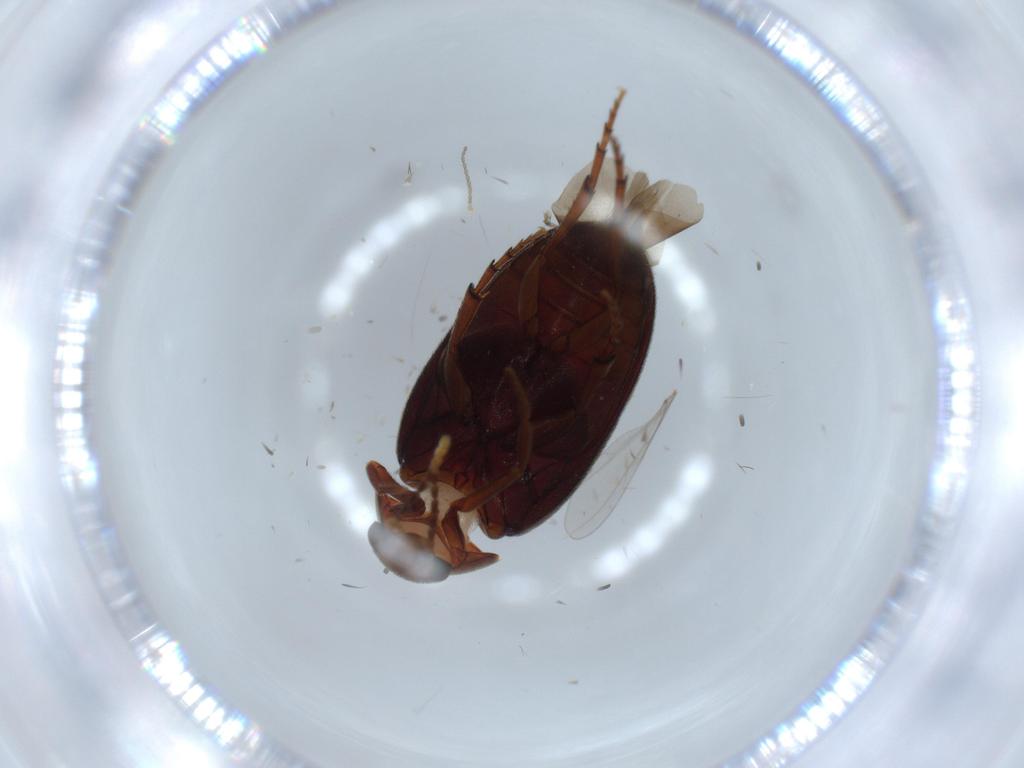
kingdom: Animalia
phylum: Arthropoda
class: Insecta
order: Coleoptera
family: Eucinetidae
